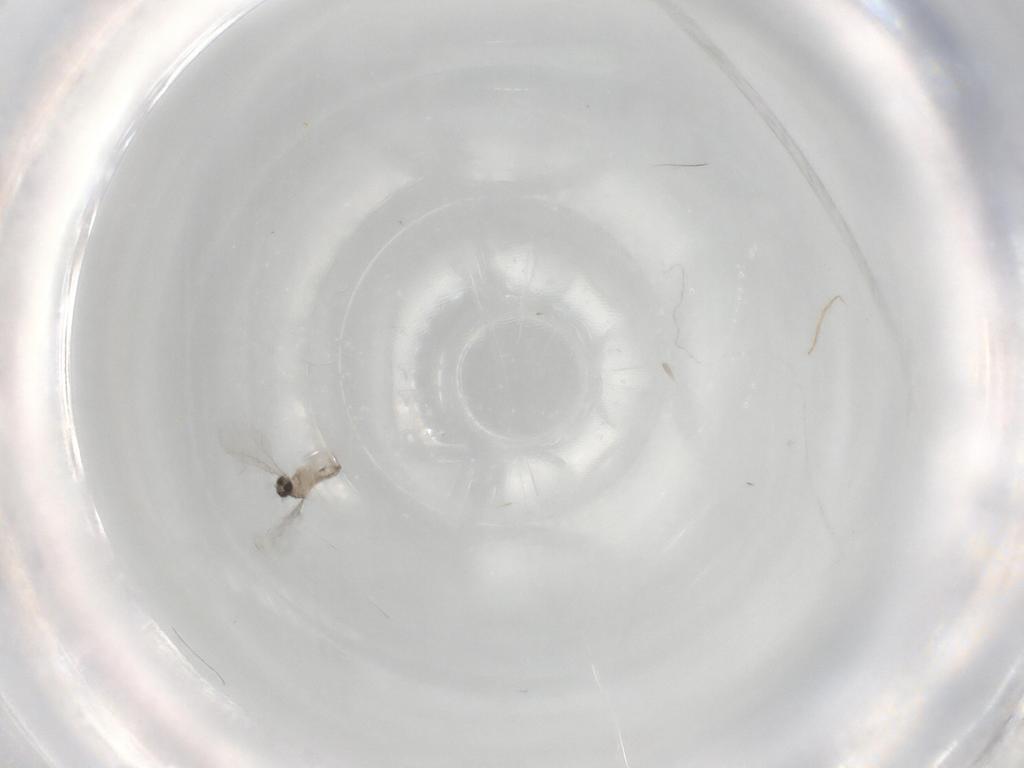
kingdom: Animalia
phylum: Arthropoda
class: Insecta
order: Diptera
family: Cecidomyiidae
